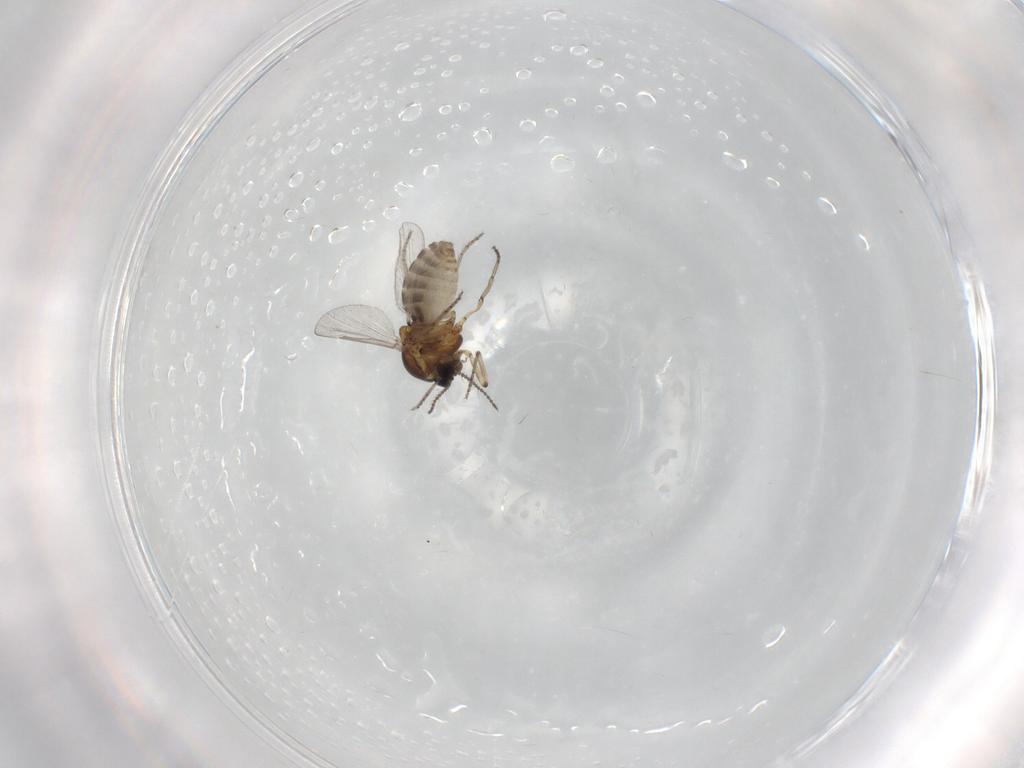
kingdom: Animalia
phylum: Arthropoda
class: Insecta
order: Diptera
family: Ceratopogonidae
